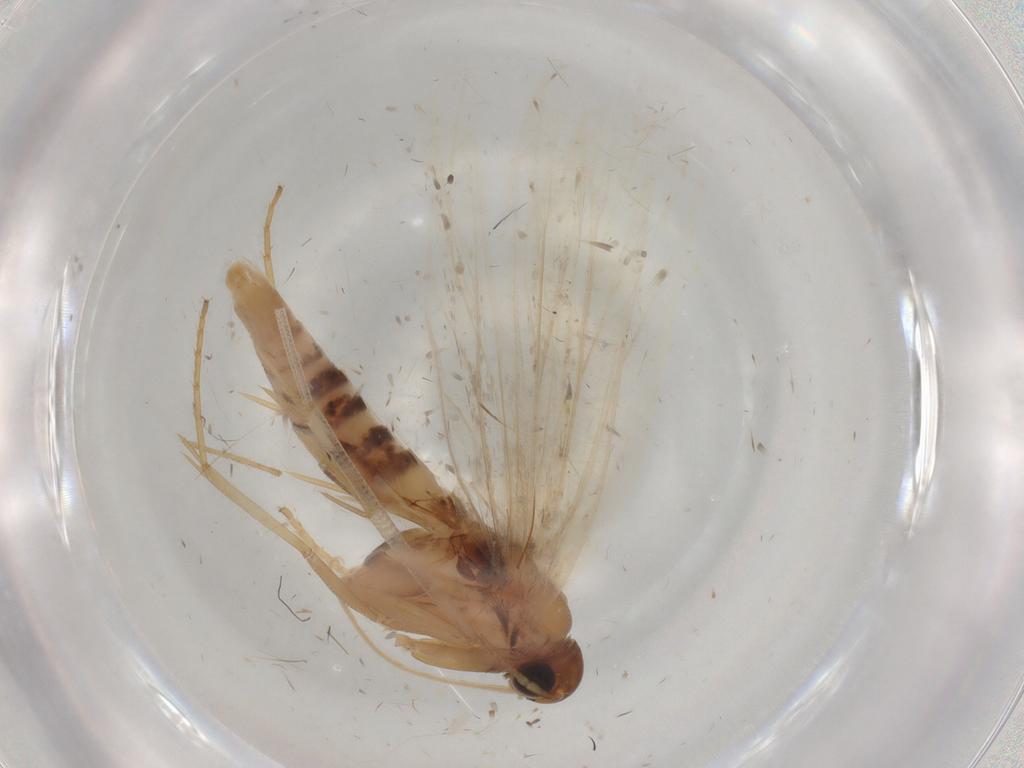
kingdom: Animalia
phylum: Arthropoda
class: Insecta
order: Lepidoptera
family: Gelechiidae
